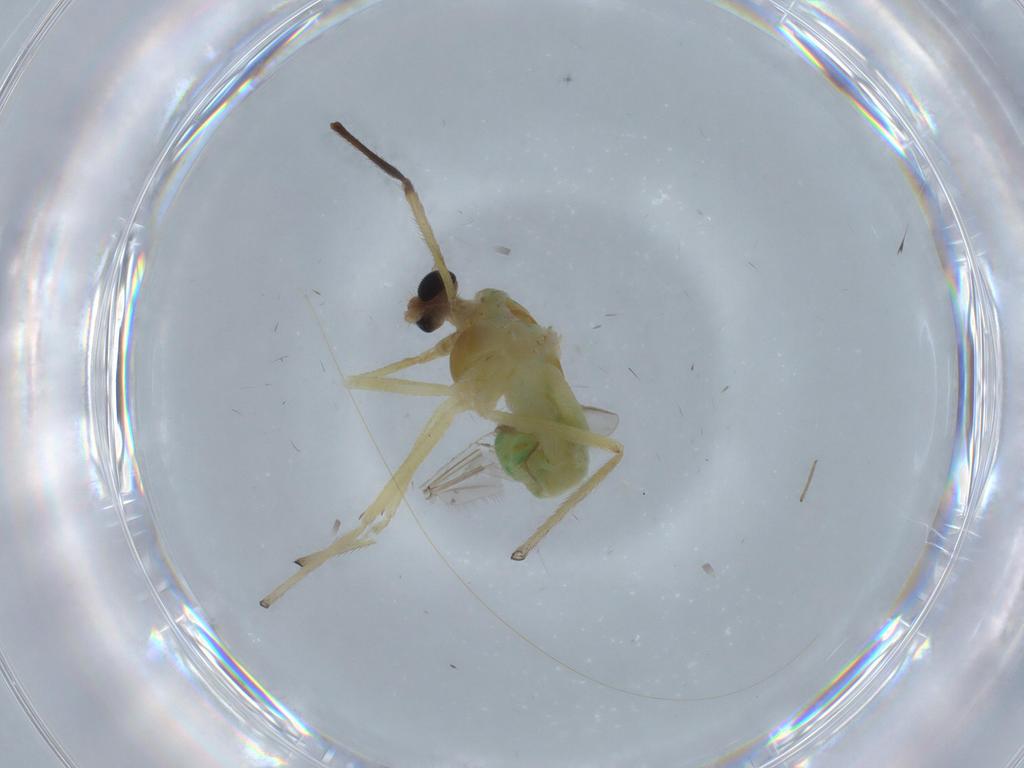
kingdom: Animalia
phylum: Arthropoda
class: Insecta
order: Diptera
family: Chironomidae
